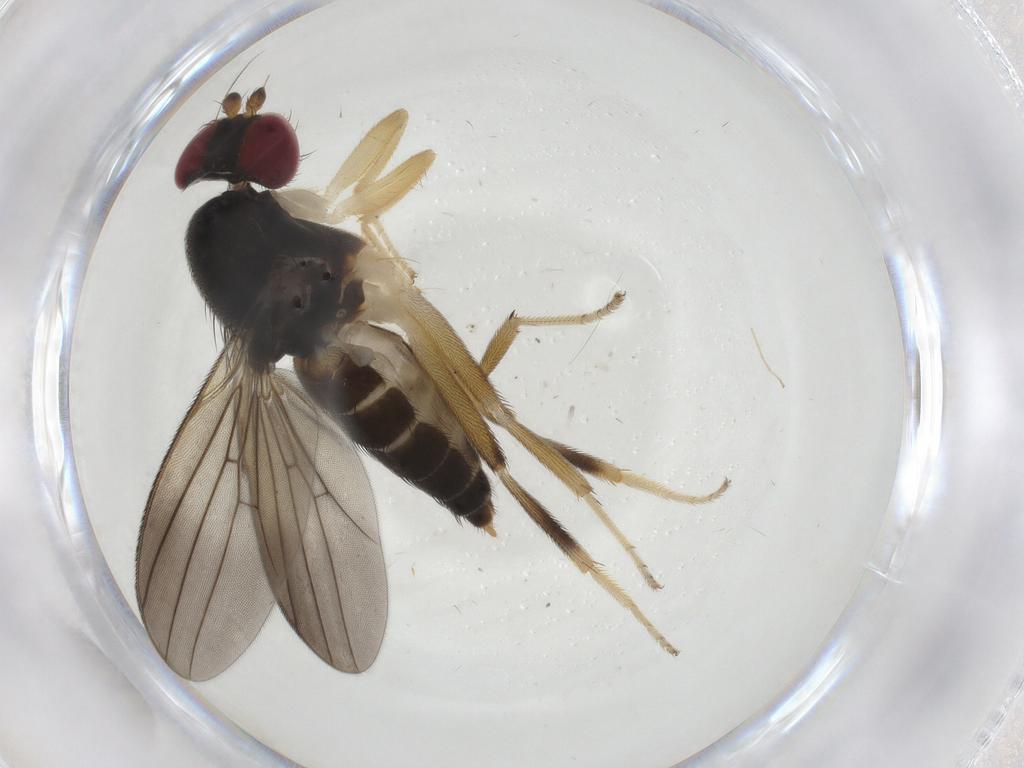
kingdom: Animalia
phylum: Arthropoda
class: Insecta
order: Diptera
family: Clusiidae
